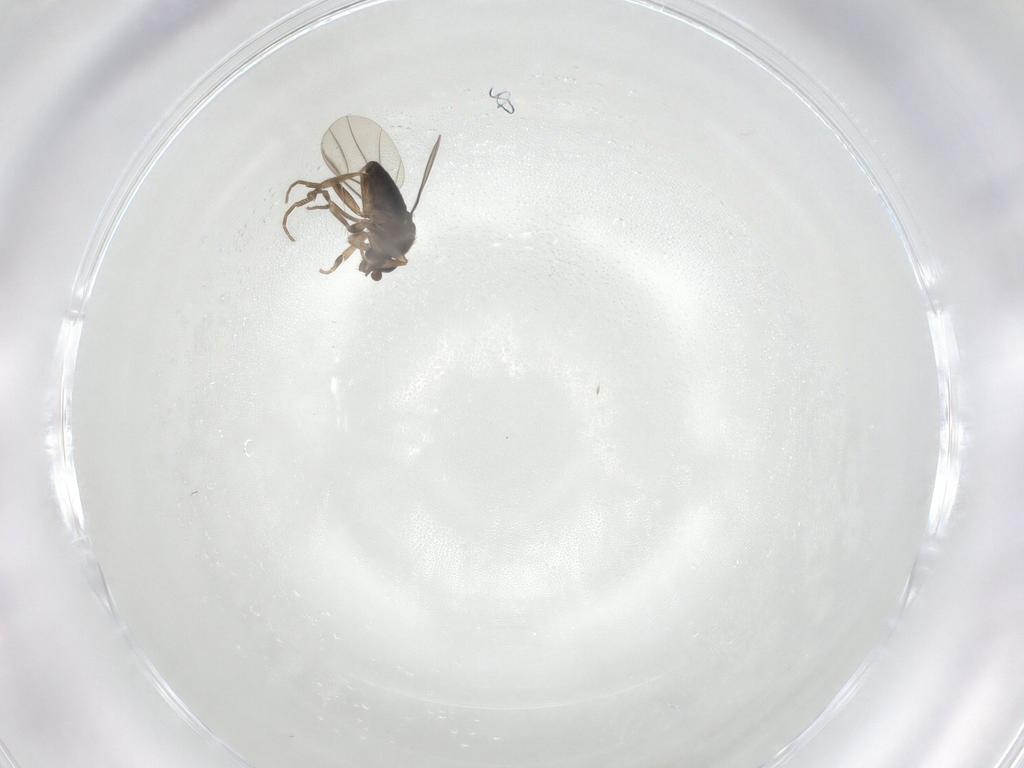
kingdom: Animalia
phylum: Arthropoda
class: Insecta
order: Diptera
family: Phoridae
